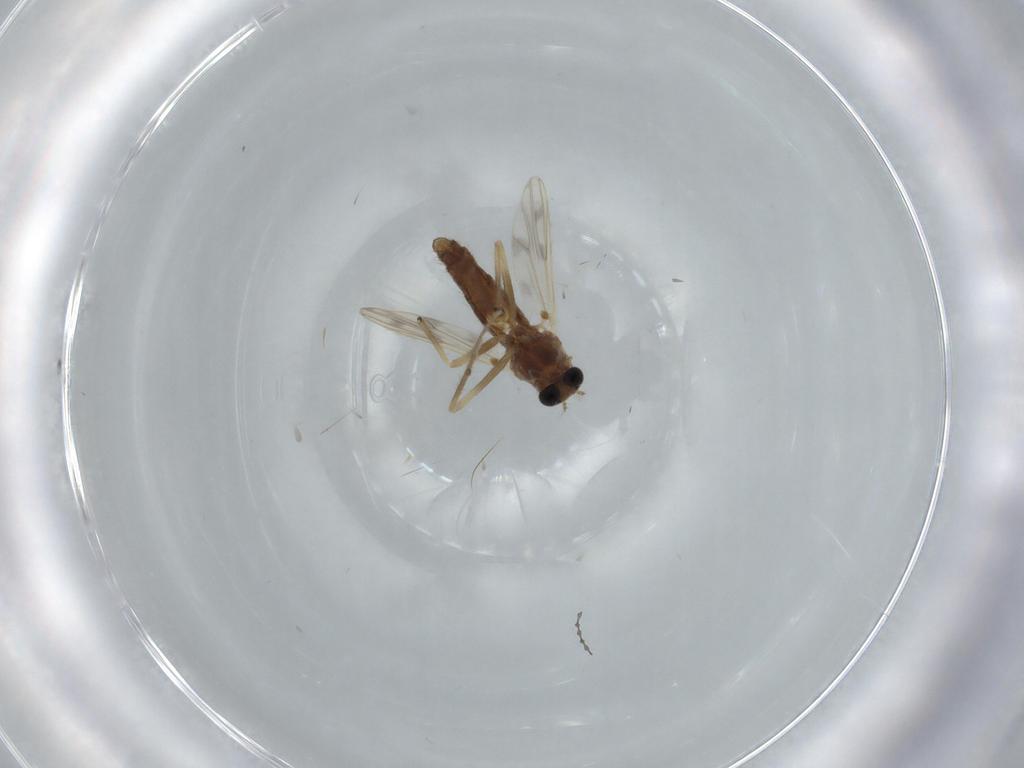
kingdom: Animalia
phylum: Arthropoda
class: Insecta
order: Diptera
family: Chironomidae
